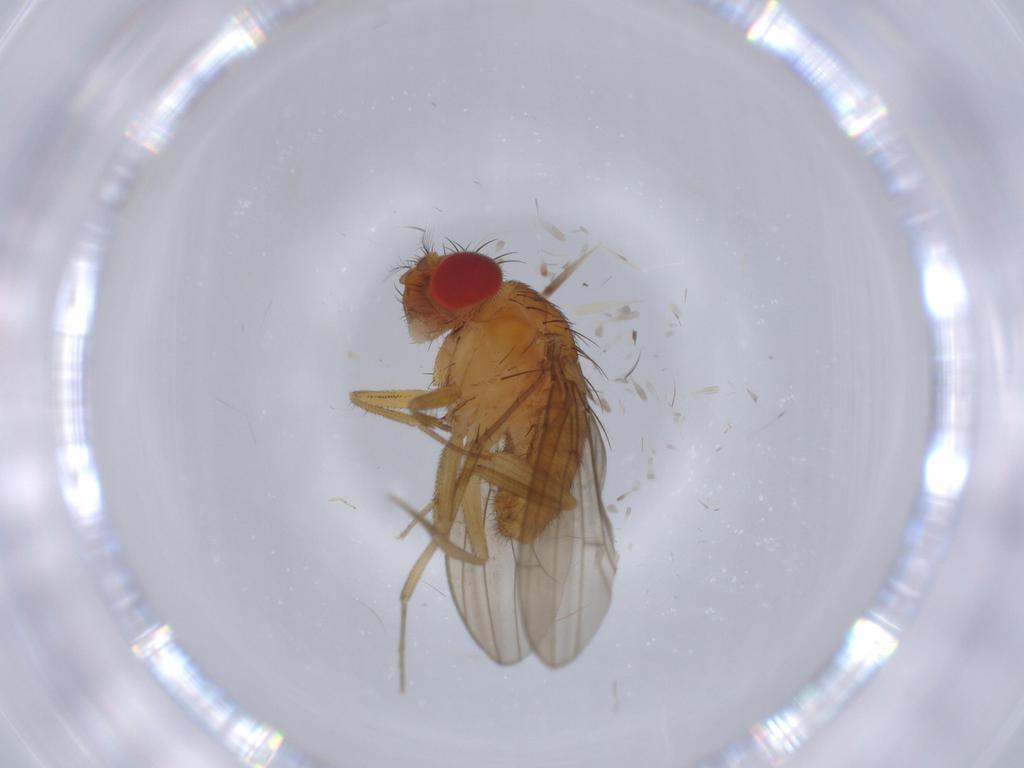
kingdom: Animalia
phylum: Arthropoda
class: Insecta
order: Diptera
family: Drosophilidae
